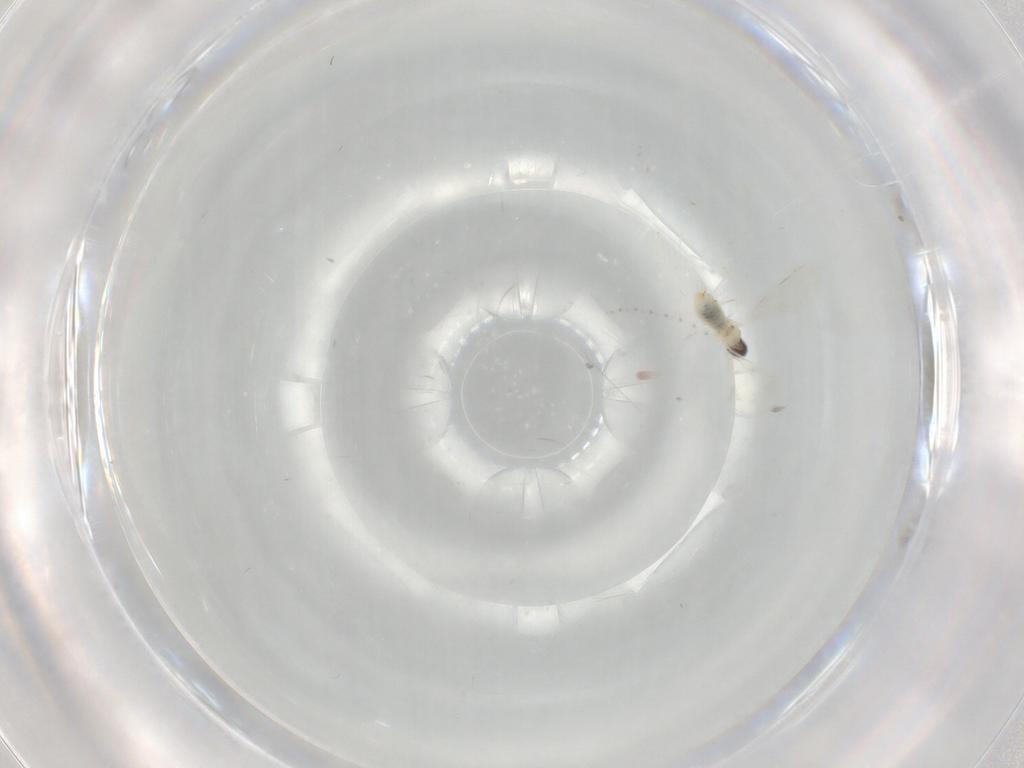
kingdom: Animalia
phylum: Arthropoda
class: Insecta
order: Diptera
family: Cecidomyiidae
